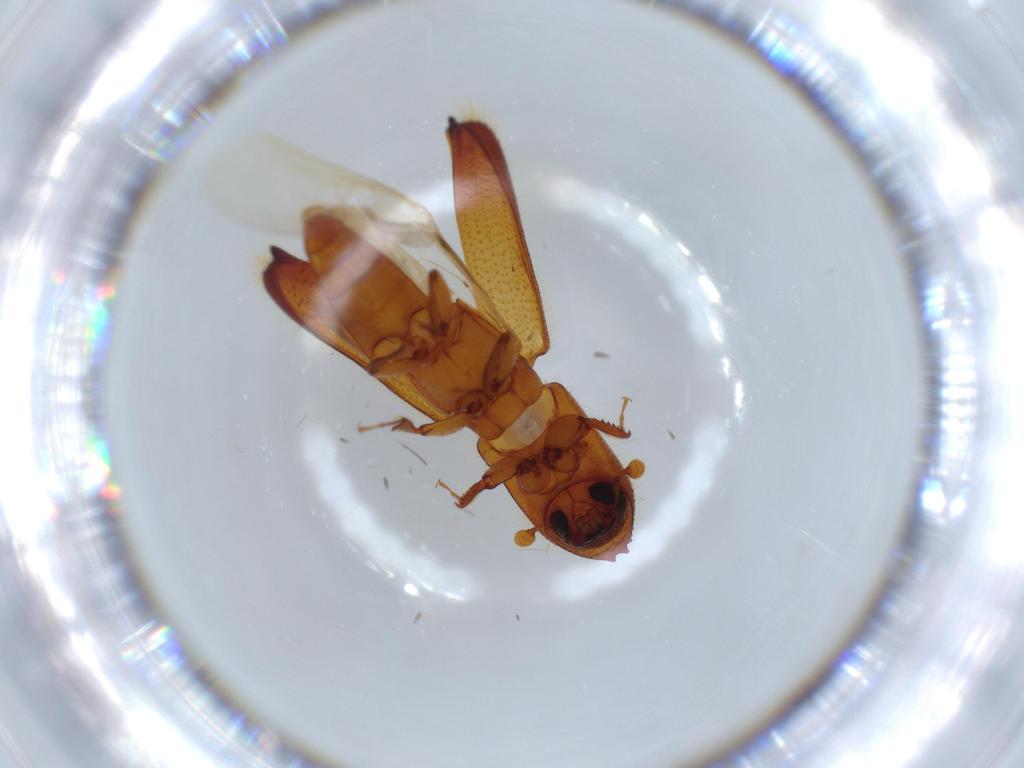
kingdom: Animalia
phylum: Arthropoda
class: Insecta
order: Coleoptera
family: Curculionidae
